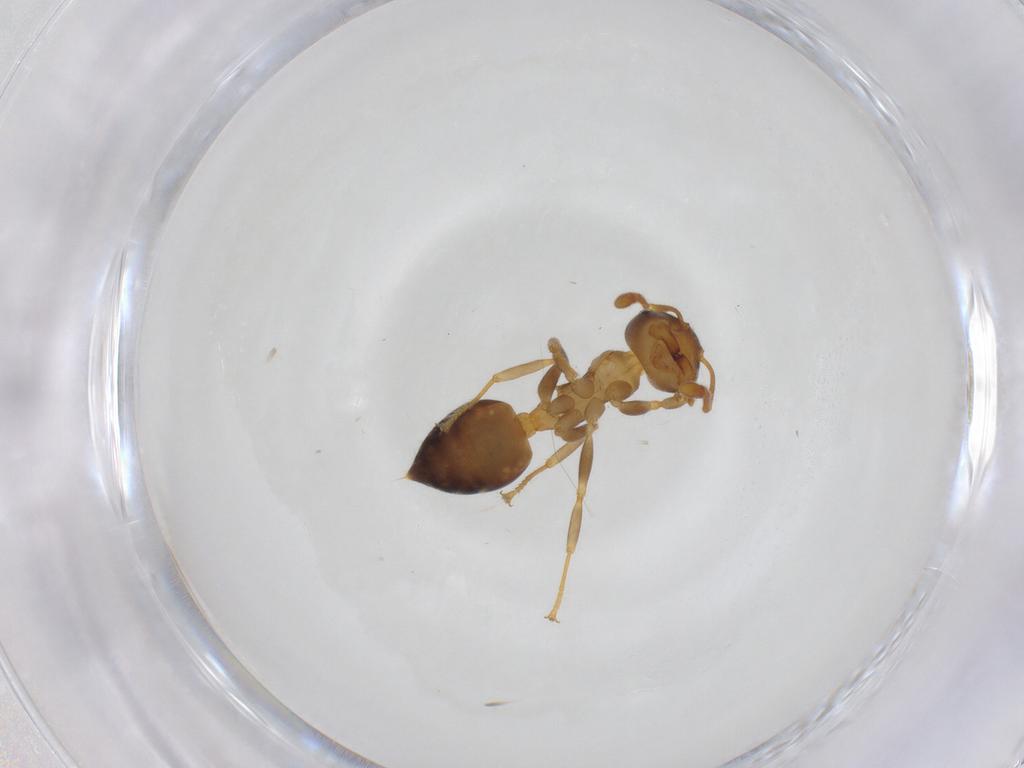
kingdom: Animalia
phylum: Arthropoda
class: Insecta
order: Hymenoptera
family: Formicidae
